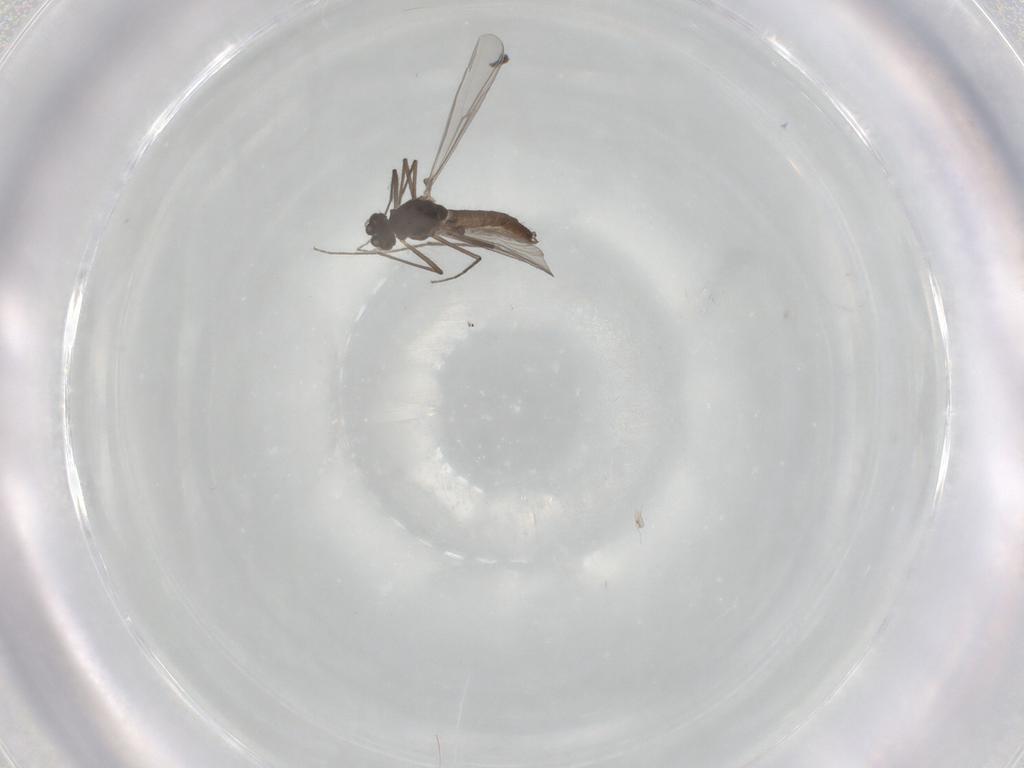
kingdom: Animalia
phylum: Arthropoda
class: Insecta
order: Diptera
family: Chironomidae
